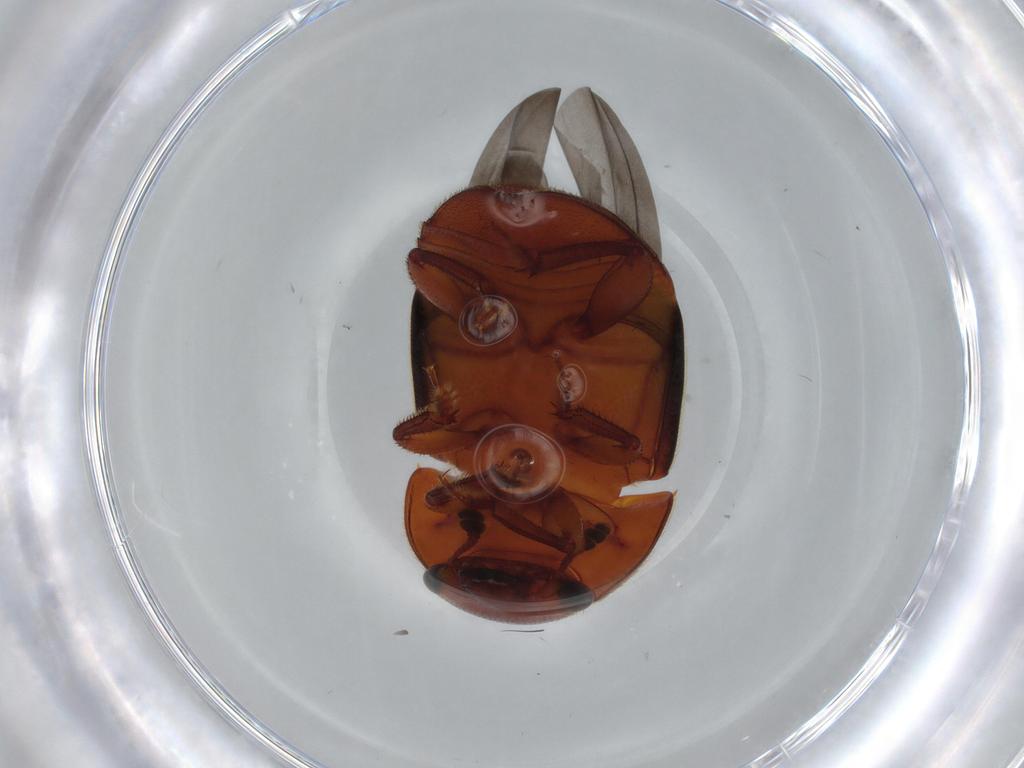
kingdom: Animalia
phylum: Arthropoda
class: Insecta
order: Coleoptera
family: Nitidulidae
